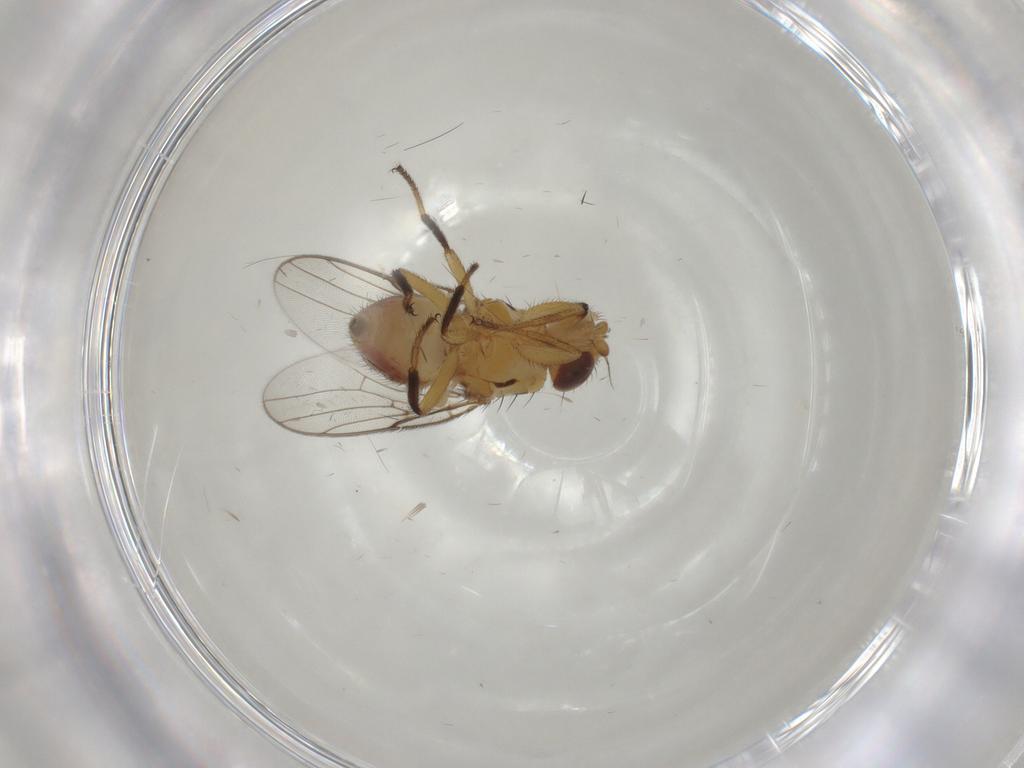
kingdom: Animalia
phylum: Arthropoda
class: Insecta
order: Diptera
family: Chloropidae
